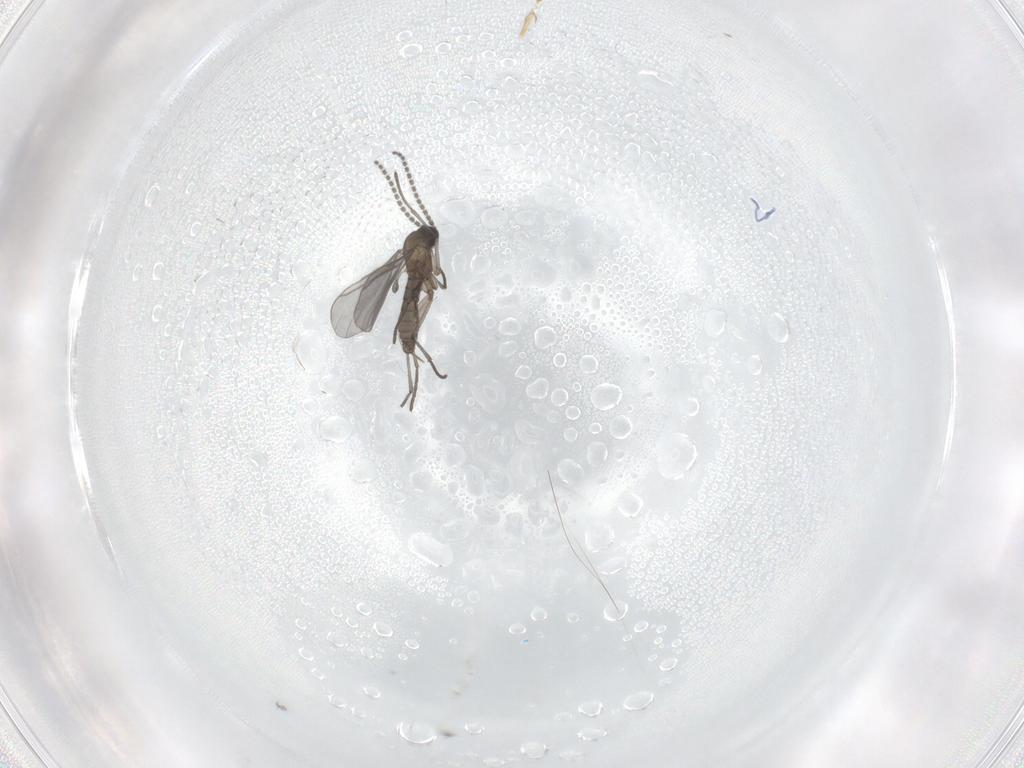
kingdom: Animalia
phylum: Arthropoda
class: Insecta
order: Diptera
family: Cecidomyiidae
